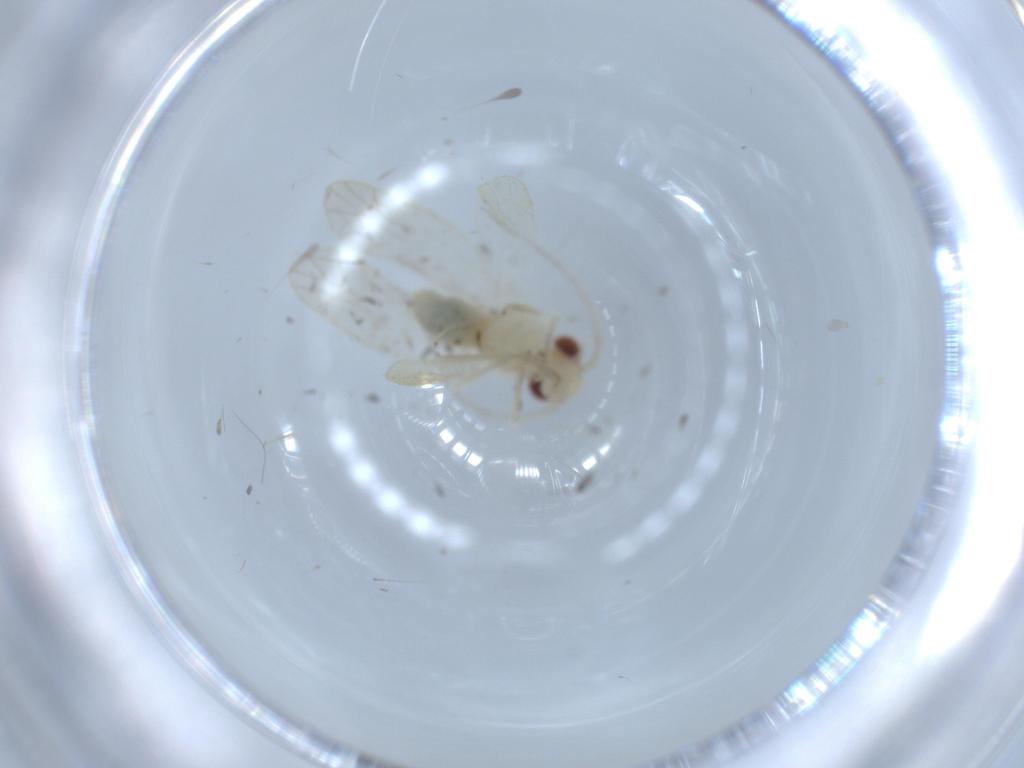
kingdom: Animalia
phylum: Arthropoda
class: Insecta
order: Psocodea
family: Caeciliusidae
